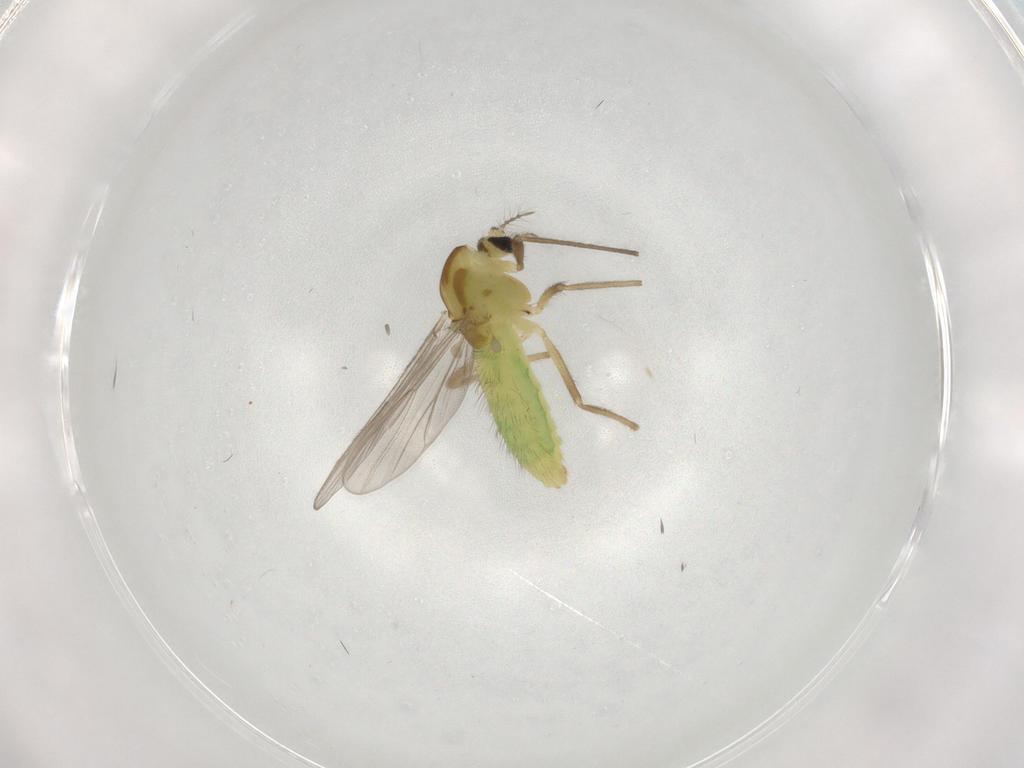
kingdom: Animalia
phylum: Arthropoda
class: Insecta
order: Diptera
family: Chironomidae
